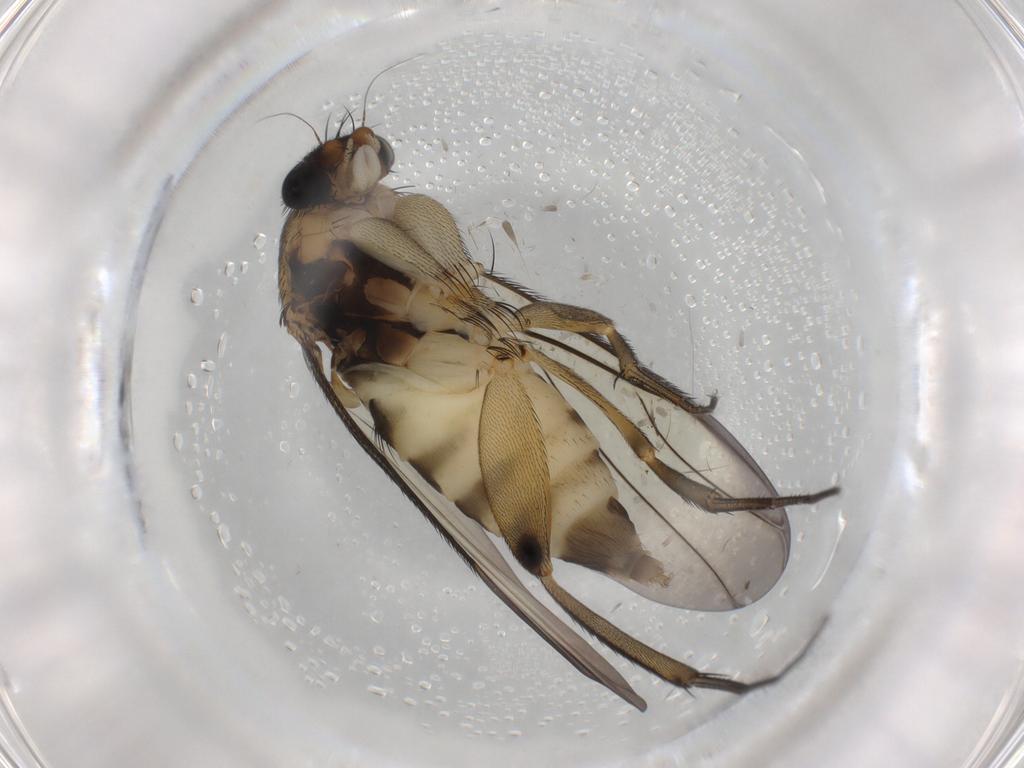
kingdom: Animalia
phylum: Arthropoda
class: Insecta
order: Diptera
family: Phoridae
